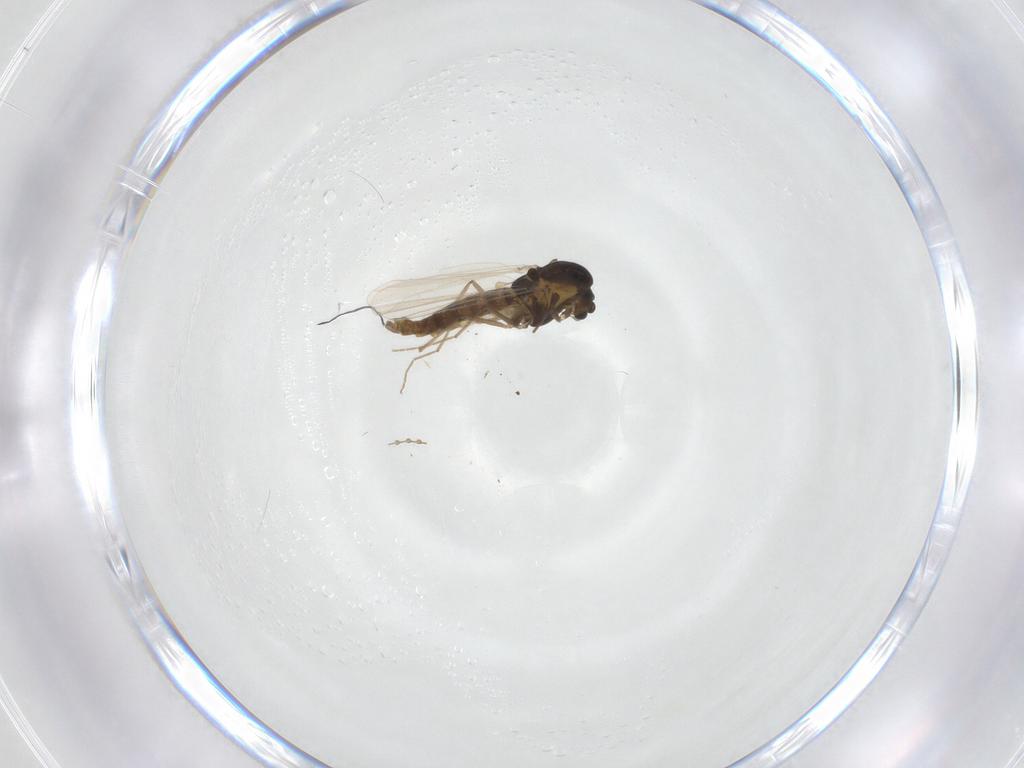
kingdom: Animalia
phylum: Arthropoda
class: Insecta
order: Diptera
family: Chironomidae
